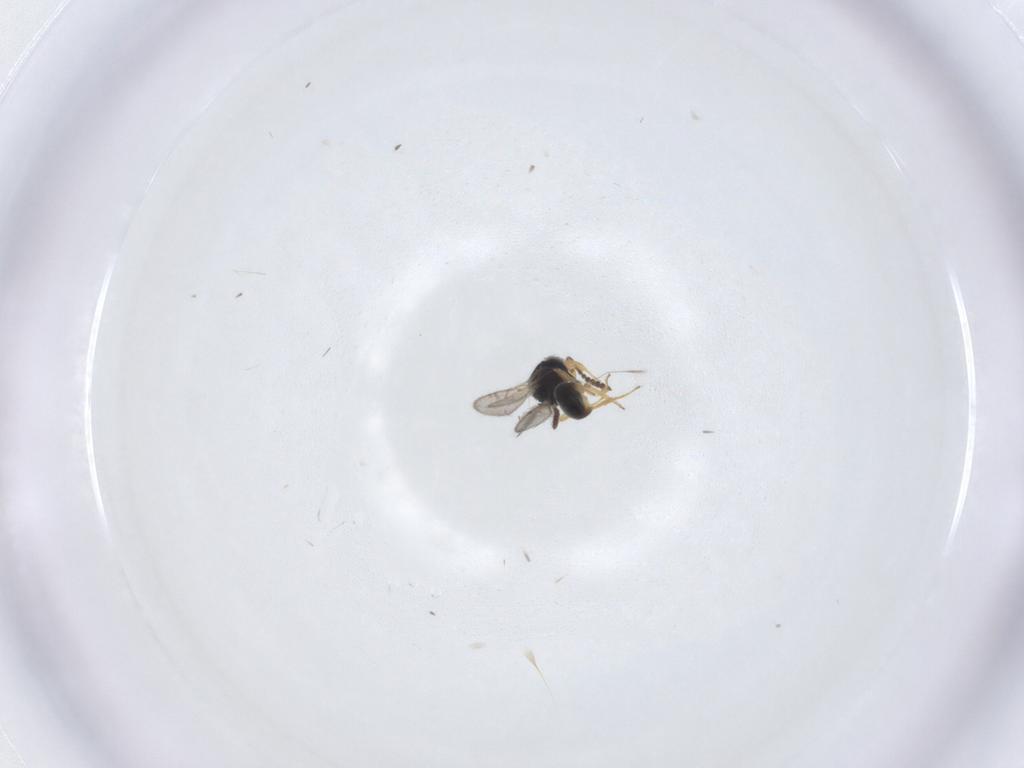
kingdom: Animalia
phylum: Arthropoda
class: Insecta
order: Hymenoptera
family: Scelionidae
